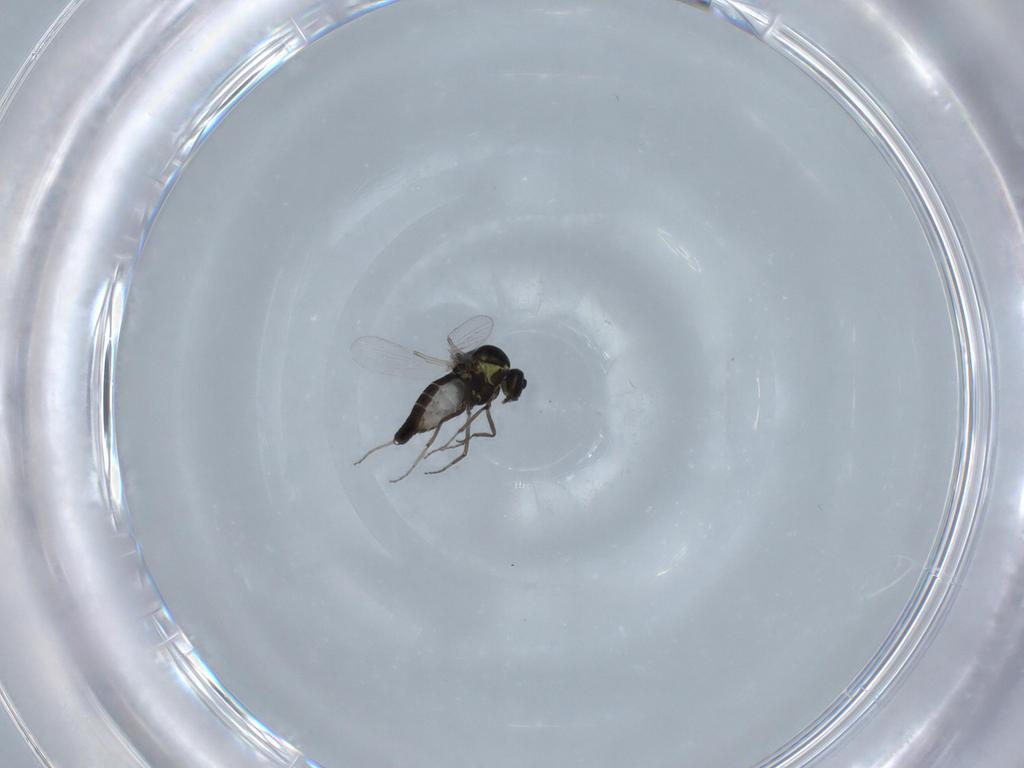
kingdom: Animalia
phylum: Arthropoda
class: Insecta
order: Diptera
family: Ceratopogonidae
